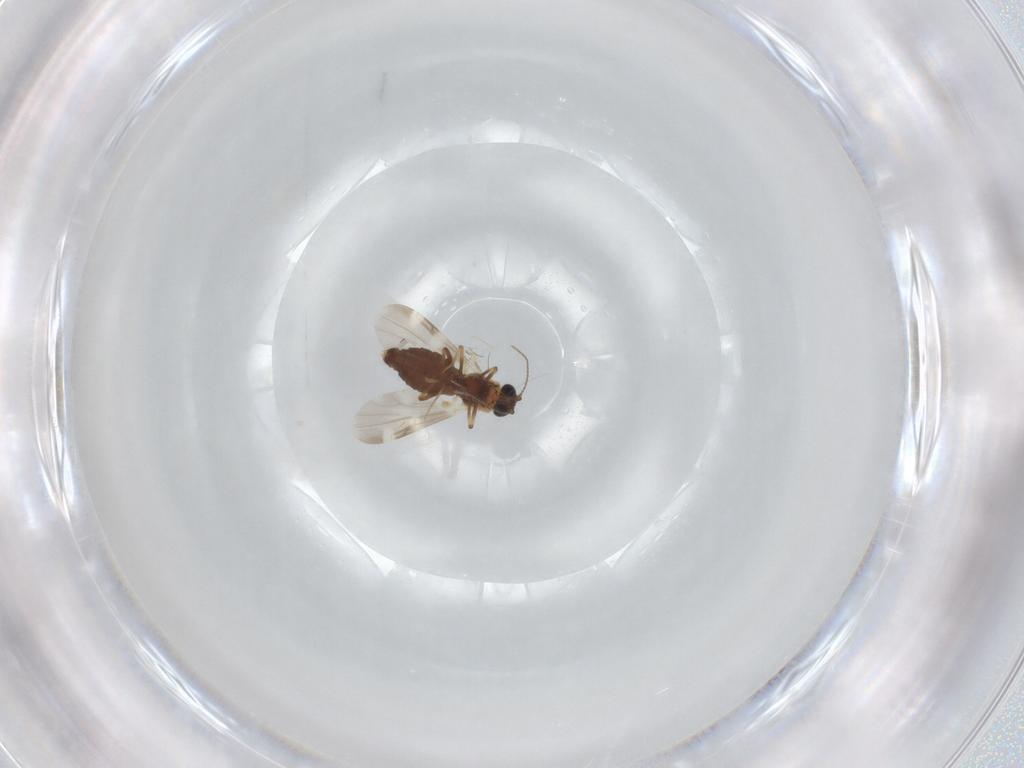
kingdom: Animalia
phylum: Arthropoda
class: Insecta
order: Diptera
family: Ceratopogonidae
